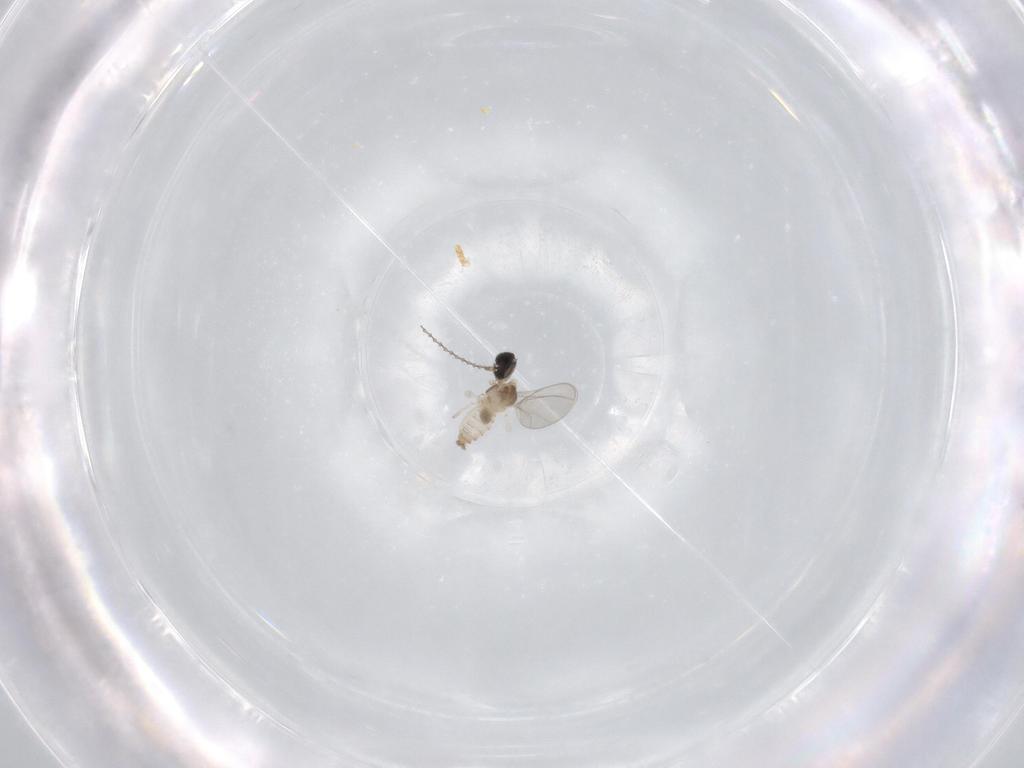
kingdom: Animalia
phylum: Arthropoda
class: Insecta
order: Diptera
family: Cecidomyiidae
